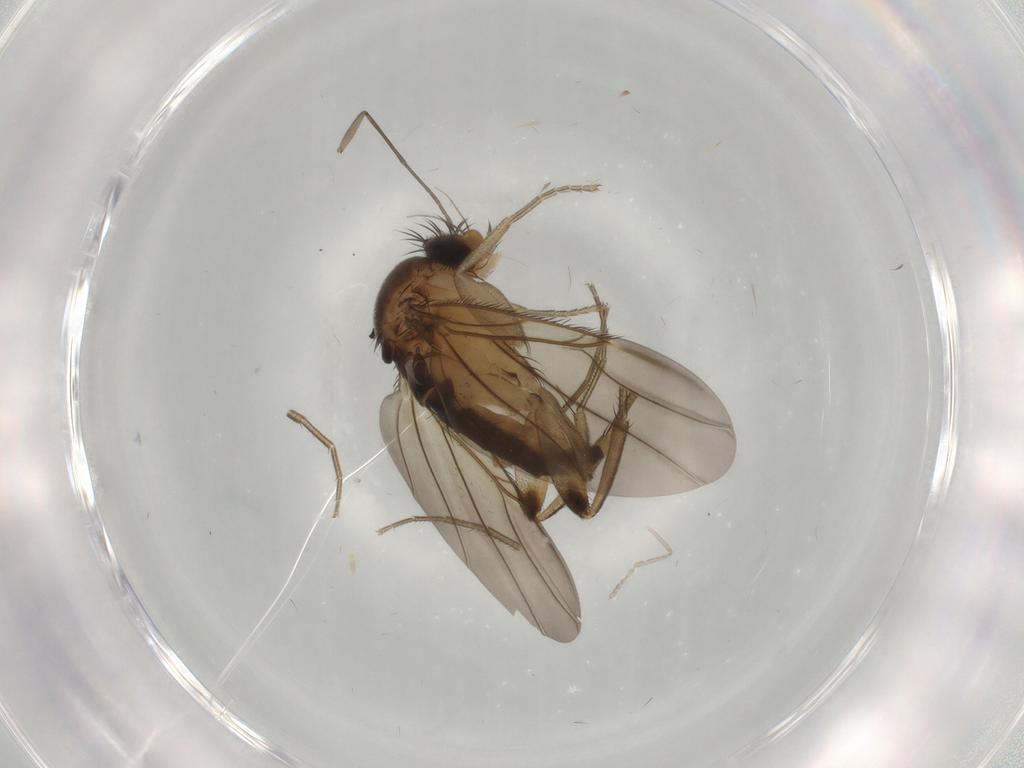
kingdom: Animalia
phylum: Arthropoda
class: Insecta
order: Diptera
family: Phoridae
